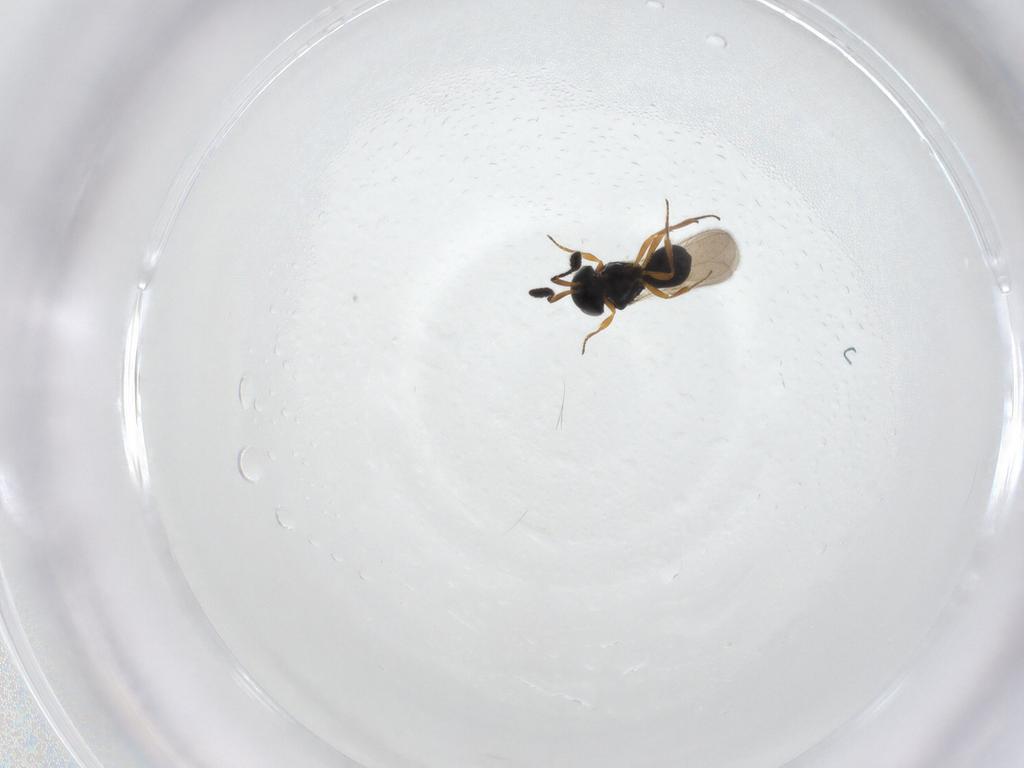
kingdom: Animalia
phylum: Arthropoda
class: Insecta
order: Hymenoptera
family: Scelionidae
